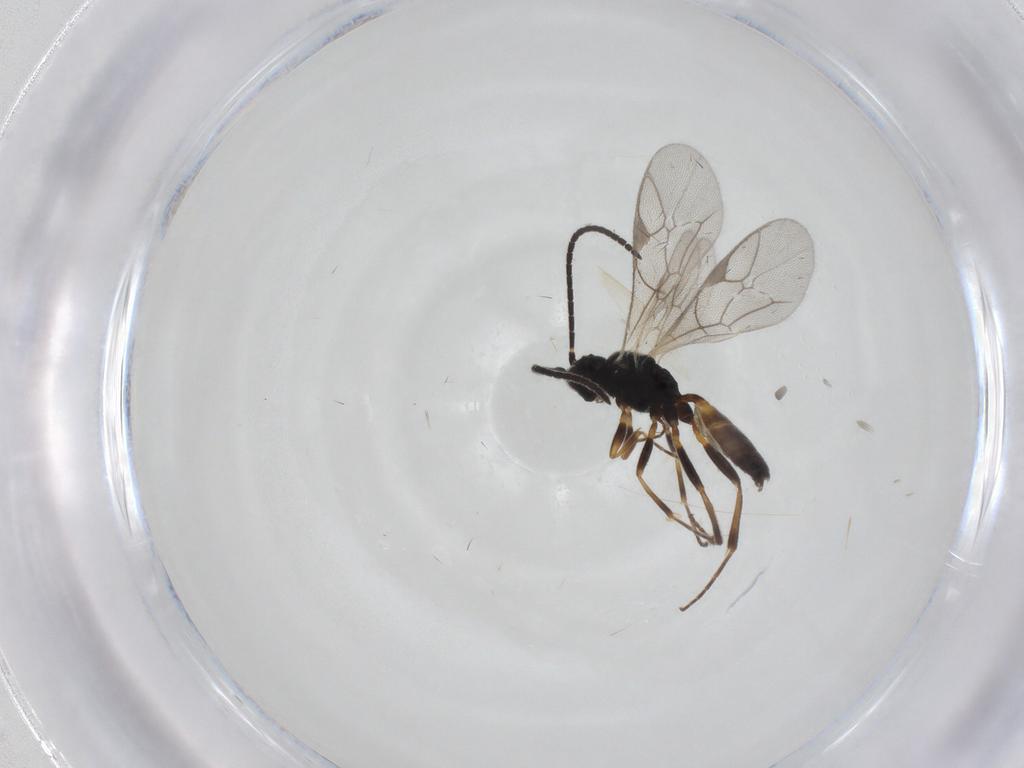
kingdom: Animalia
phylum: Arthropoda
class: Insecta
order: Hymenoptera
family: Ichneumonidae
